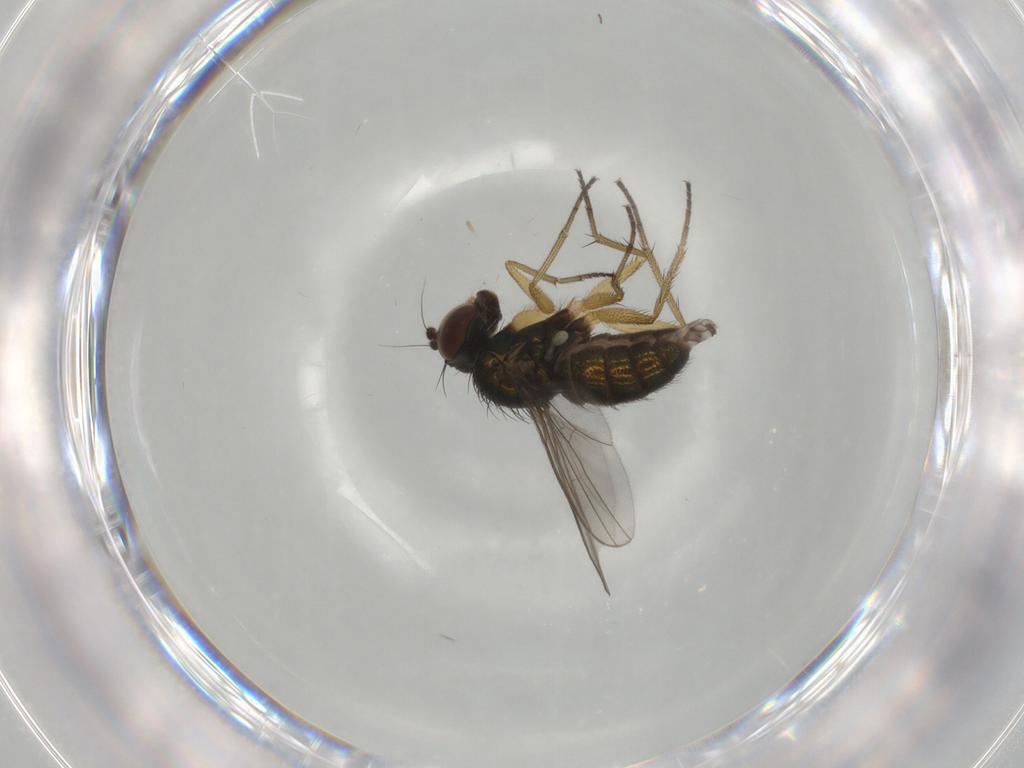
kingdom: Animalia
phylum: Arthropoda
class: Insecta
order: Diptera
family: Dolichopodidae
